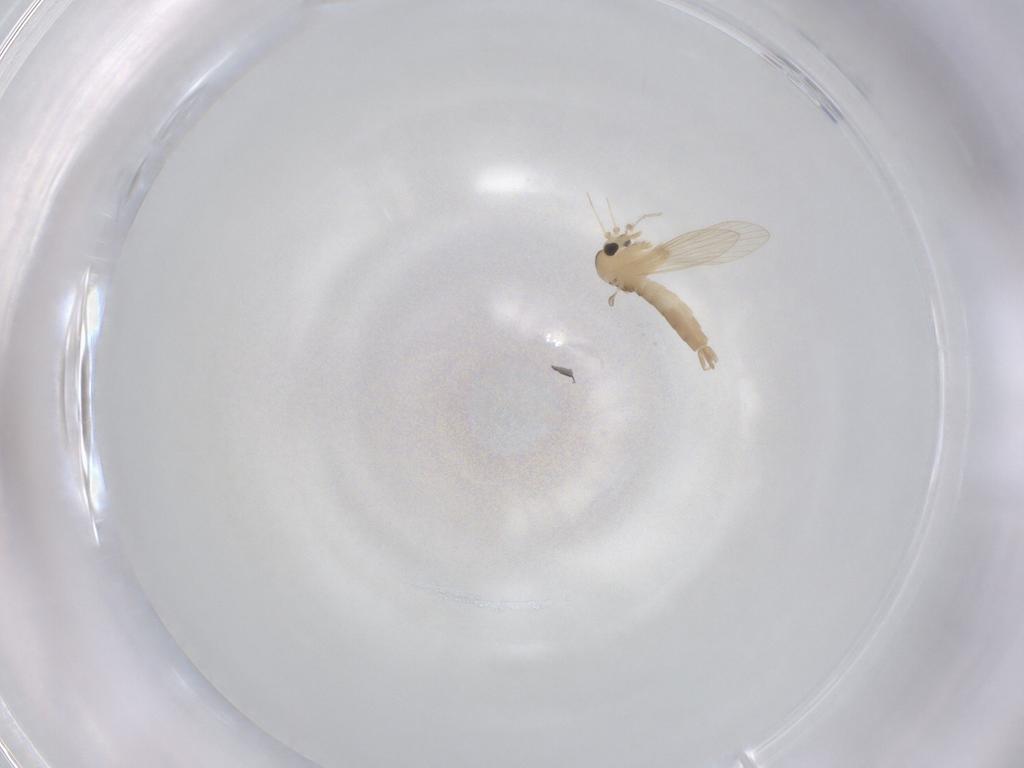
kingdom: Animalia
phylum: Arthropoda
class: Insecta
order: Diptera
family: Psychodidae
